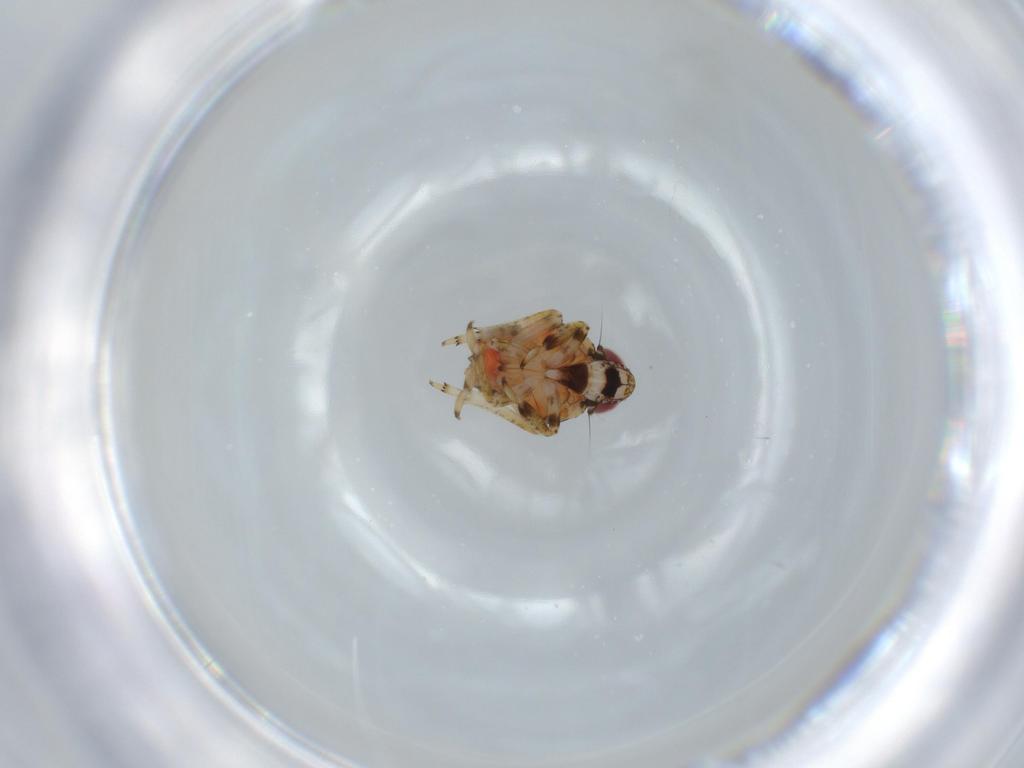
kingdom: Animalia
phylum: Arthropoda
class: Insecta
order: Hemiptera
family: Issidae
